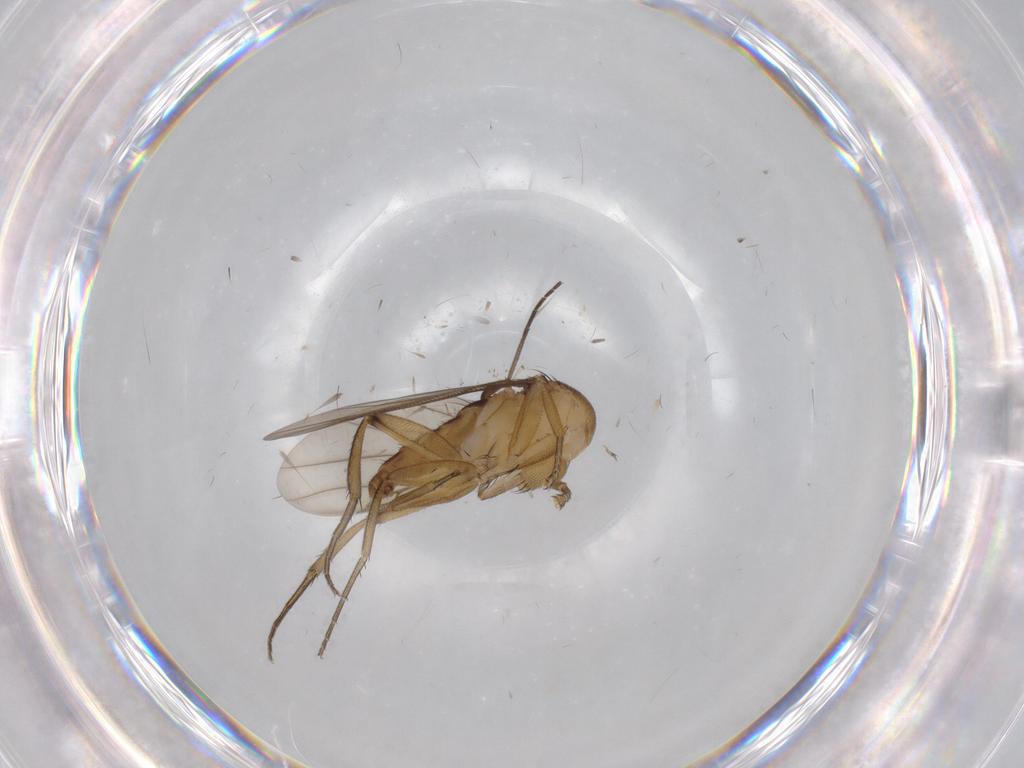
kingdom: Animalia
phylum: Arthropoda
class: Insecta
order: Diptera
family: Phoridae
